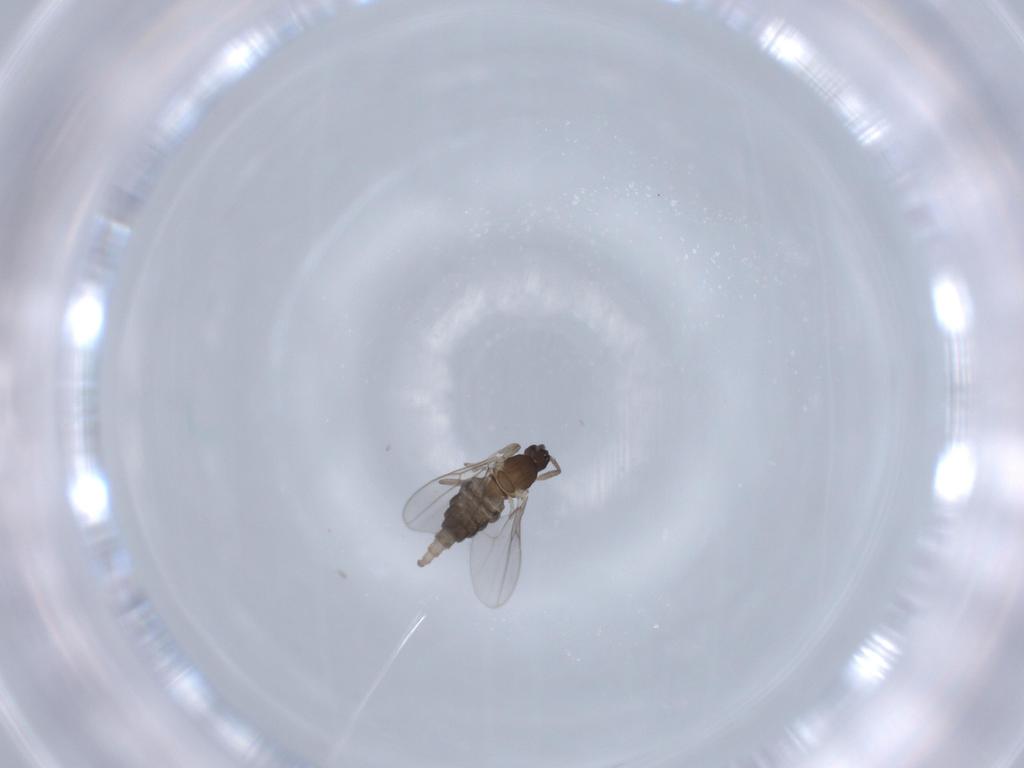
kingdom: Animalia
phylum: Arthropoda
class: Insecta
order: Diptera
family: Cecidomyiidae
